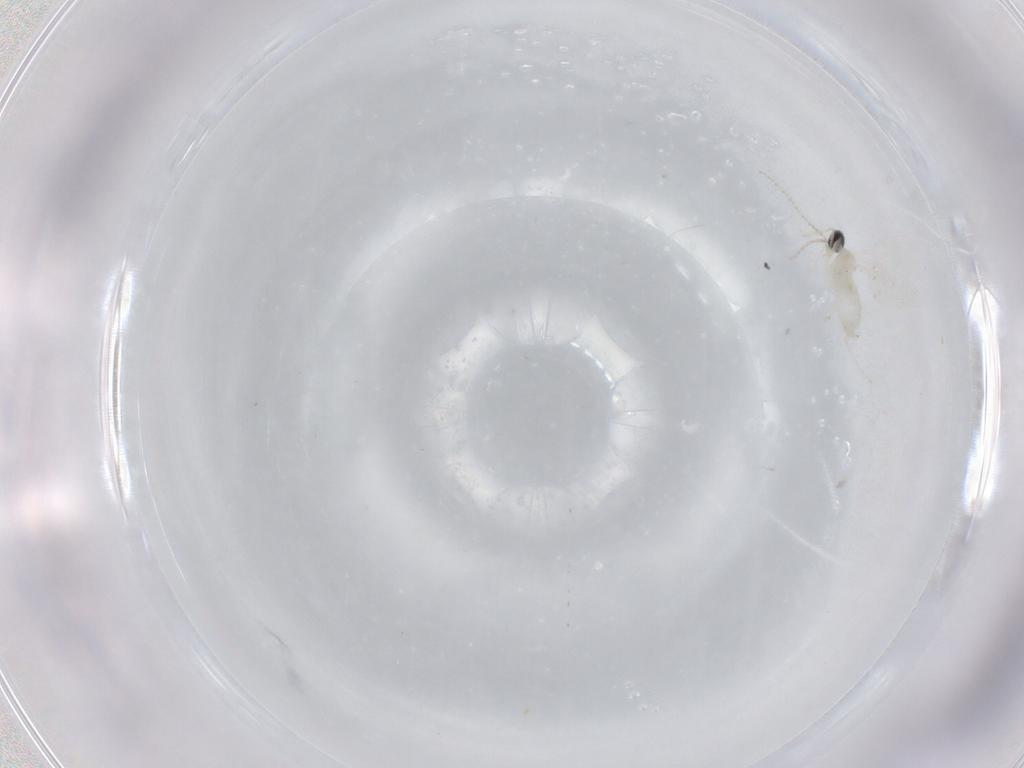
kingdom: Animalia
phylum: Arthropoda
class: Insecta
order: Diptera
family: Cecidomyiidae
